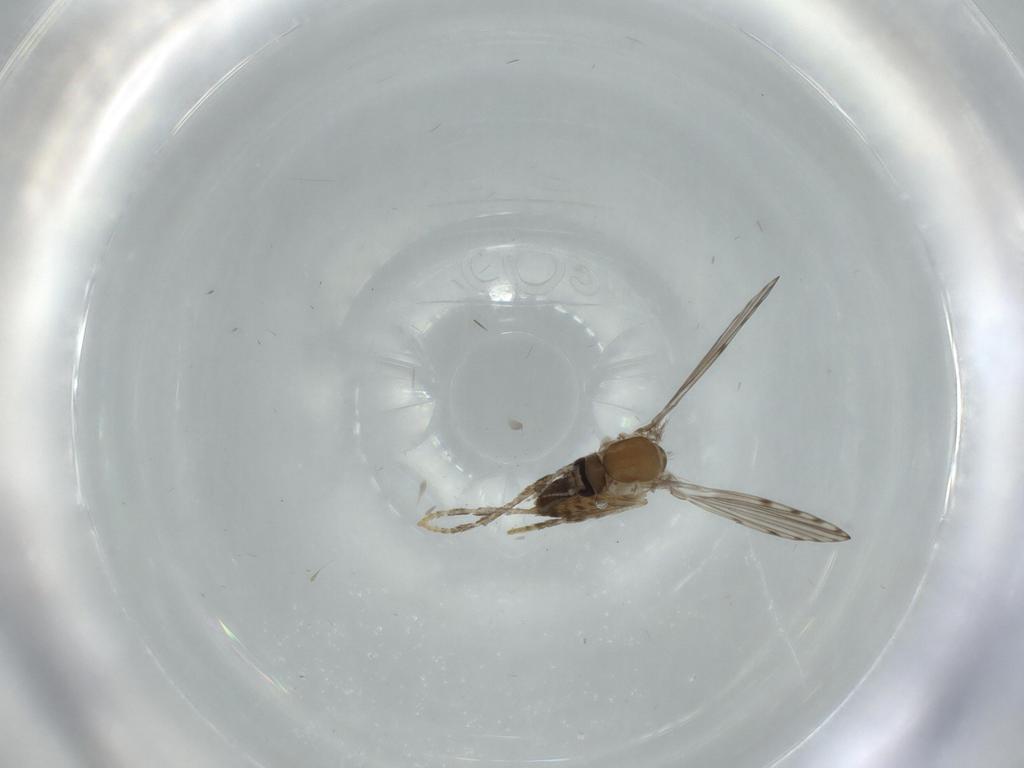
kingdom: Animalia
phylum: Arthropoda
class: Insecta
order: Diptera
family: Psychodidae
